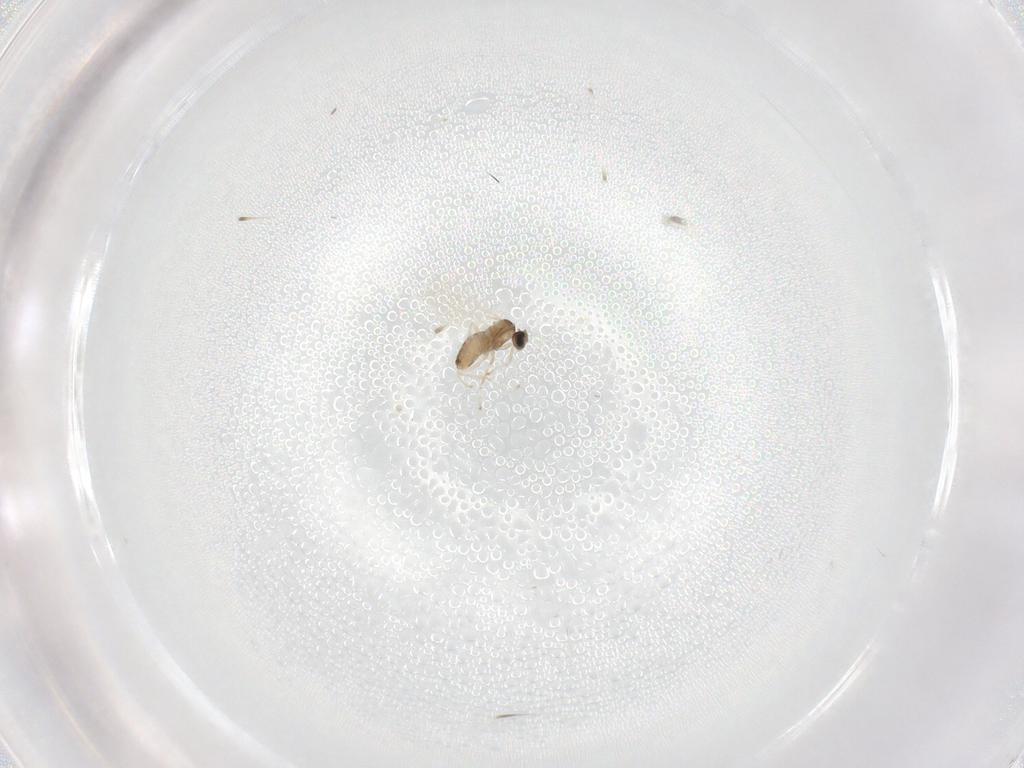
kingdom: Animalia
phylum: Arthropoda
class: Insecta
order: Diptera
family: Cecidomyiidae
